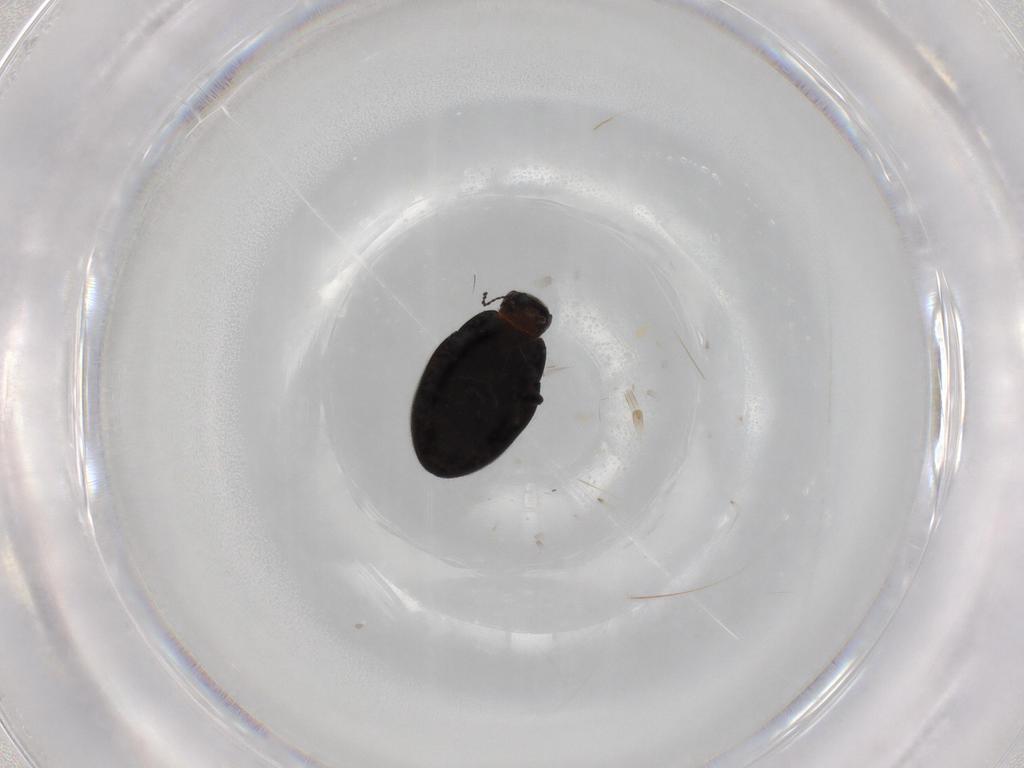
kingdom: Animalia
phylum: Arthropoda
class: Insecta
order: Coleoptera
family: Limnichidae
